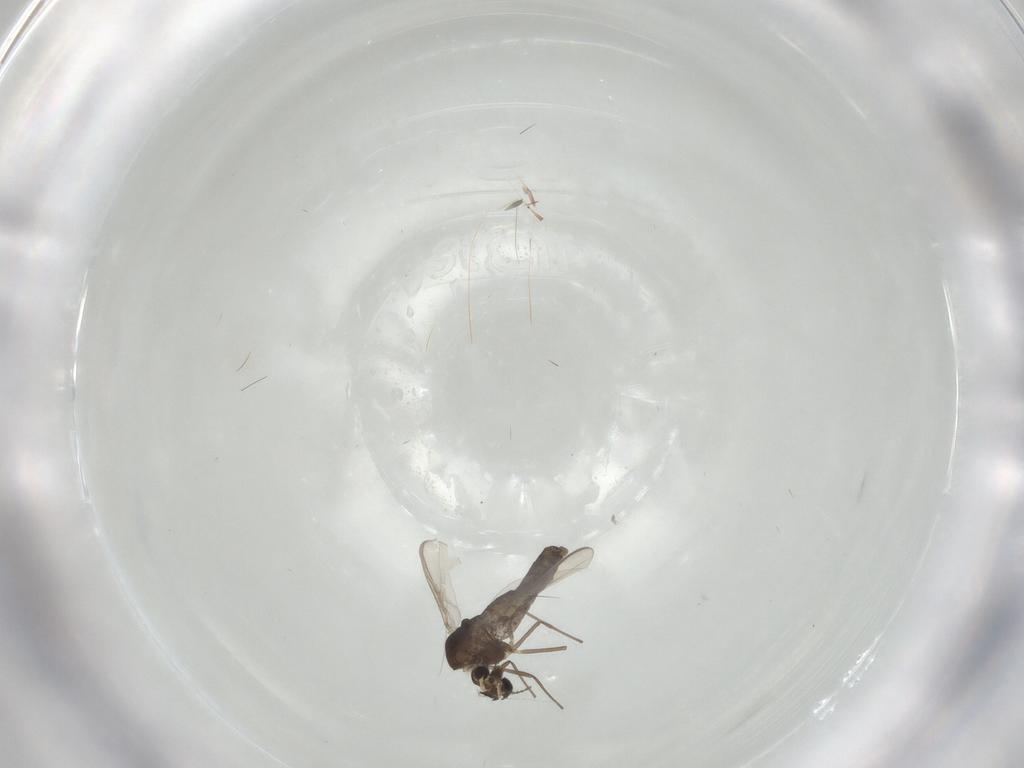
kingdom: Animalia
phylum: Arthropoda
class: Insecta
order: Diptera
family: Chironomidae
